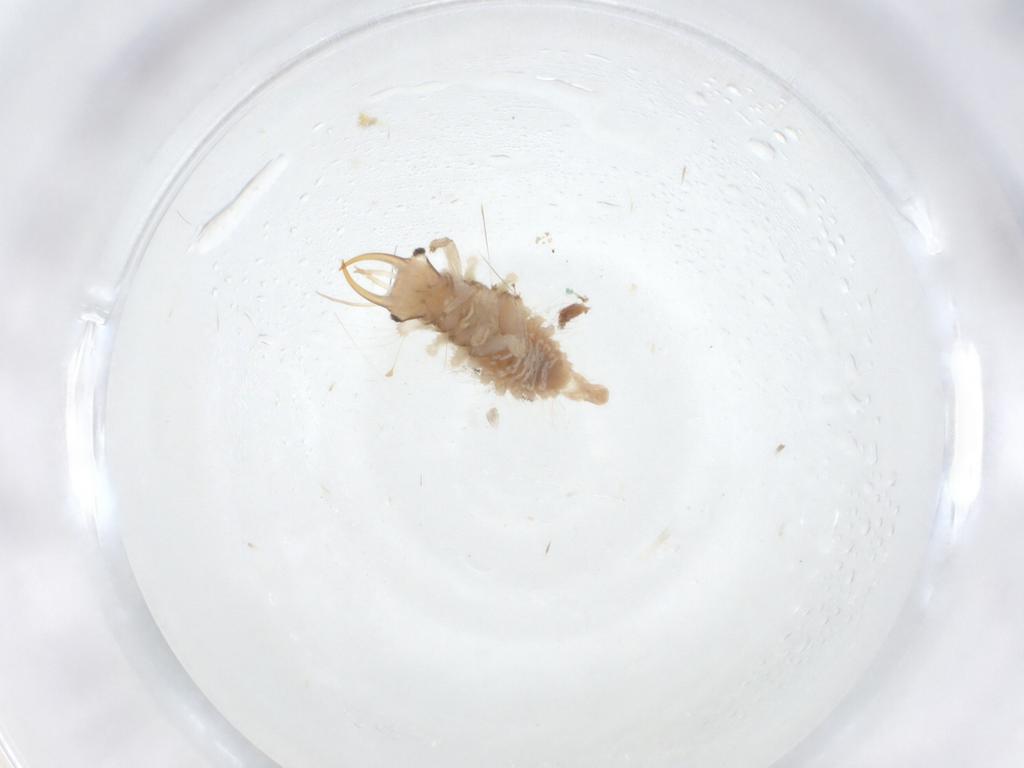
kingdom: Animalia
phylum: Arthropoda
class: Insecta
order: Neuroptera
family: Chrysopidae
